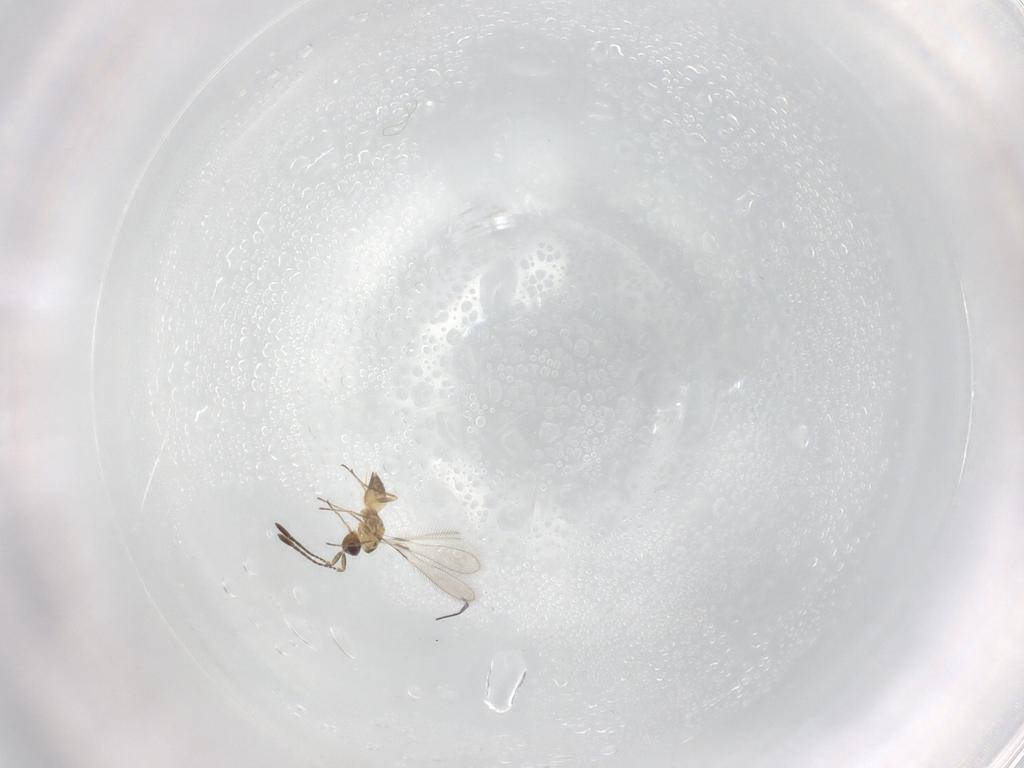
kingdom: Animalia
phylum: Arthropoda
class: Insecta
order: Hymenoptera
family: Mymaridae
